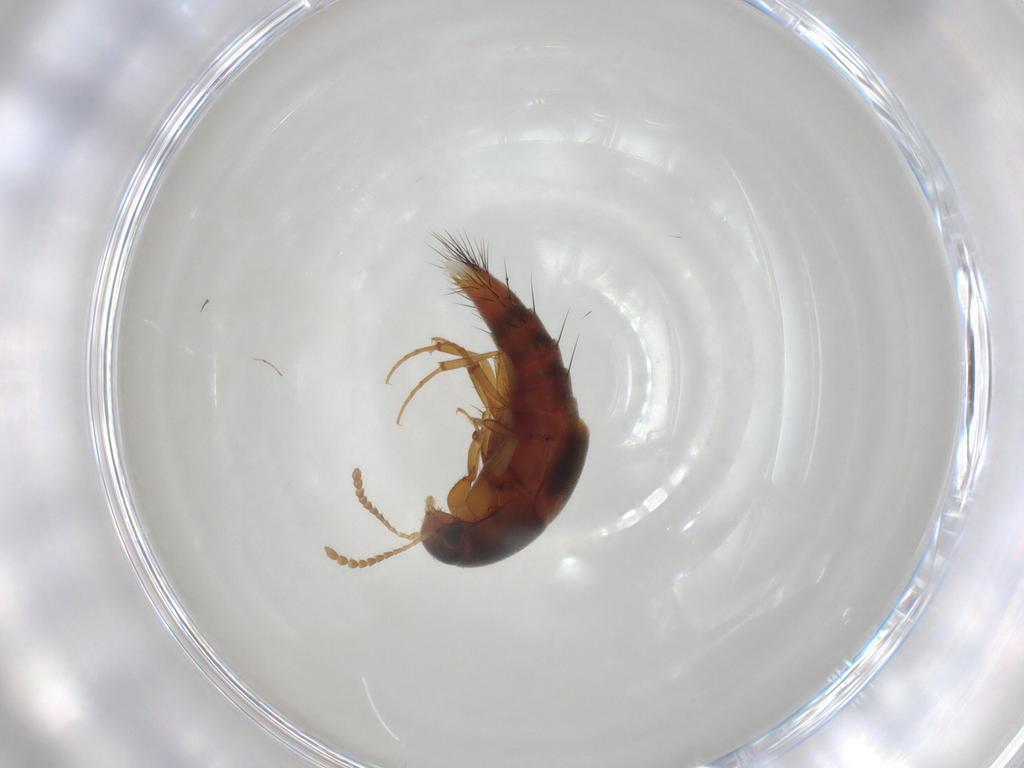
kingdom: Animalia
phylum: Arthropoda
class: Insecta
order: Coleoptera
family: Staphylinidae
